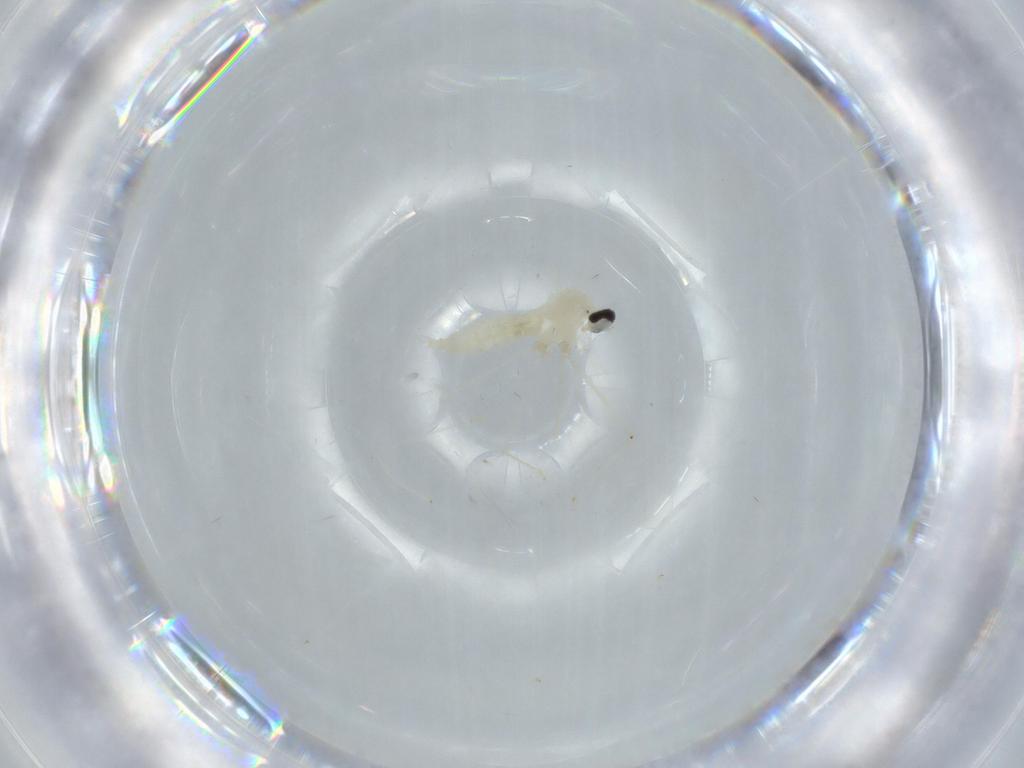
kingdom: Animalia
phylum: Arthropoda
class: Insecta
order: Diptera
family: Cecidomyiidae
